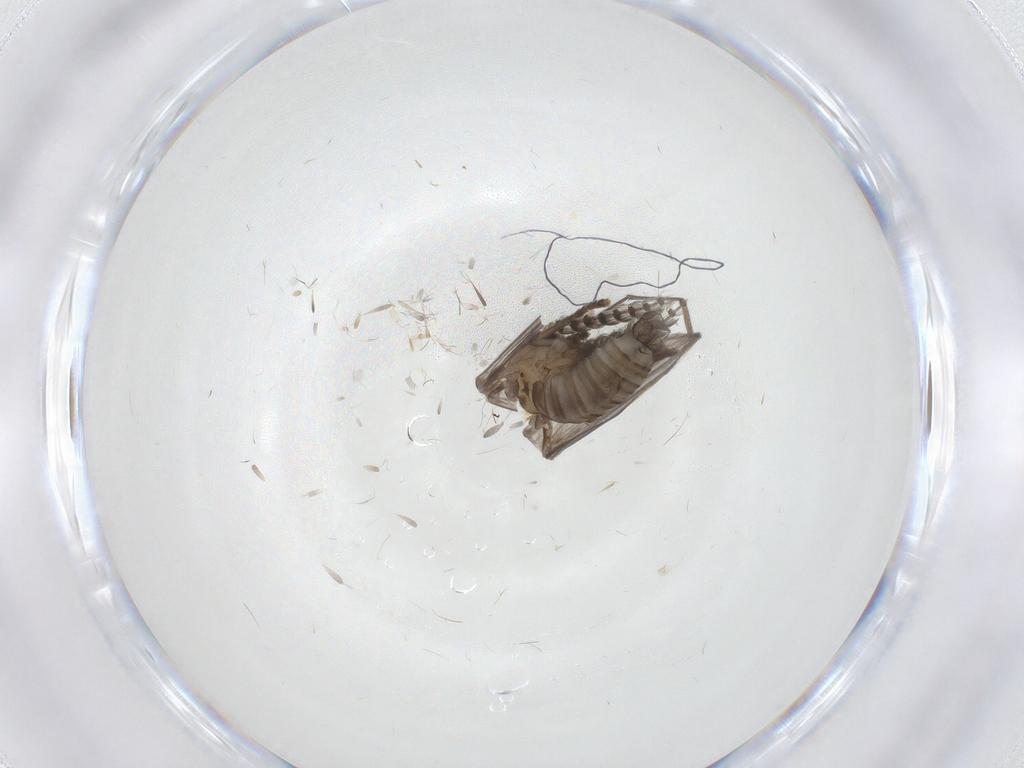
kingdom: Animalia
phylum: Arthropoda
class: Insecta
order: Diptera
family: Psychodidae
